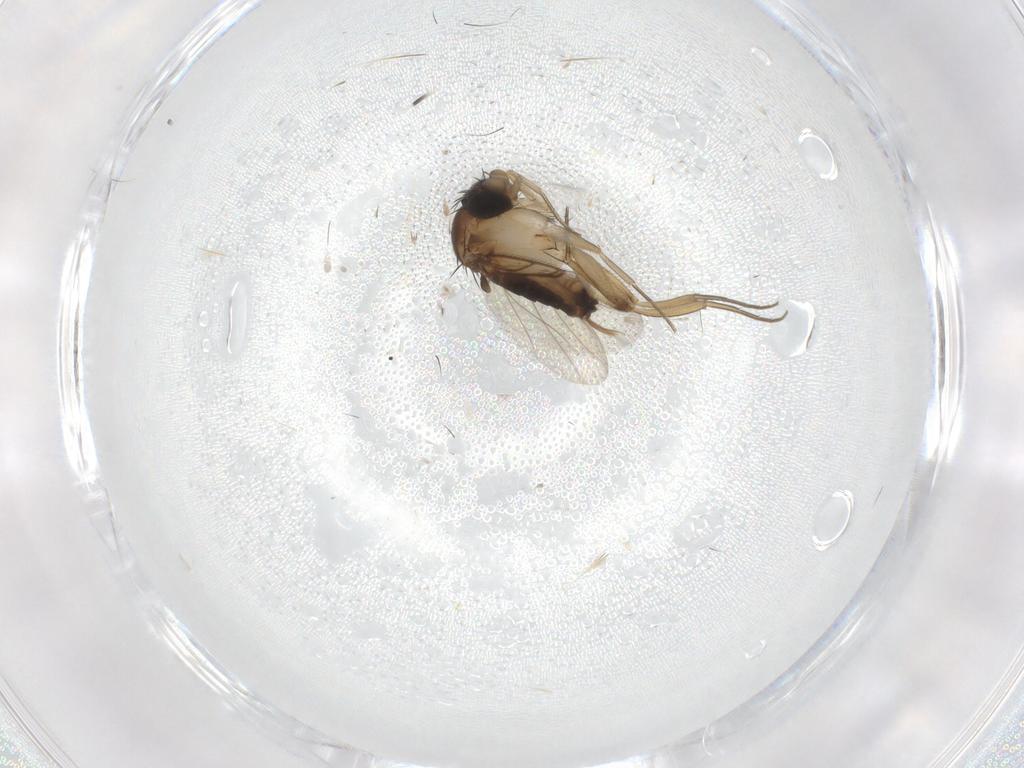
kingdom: Animalia
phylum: Arthropoda
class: Insecta
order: Diptera
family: Phoridae
